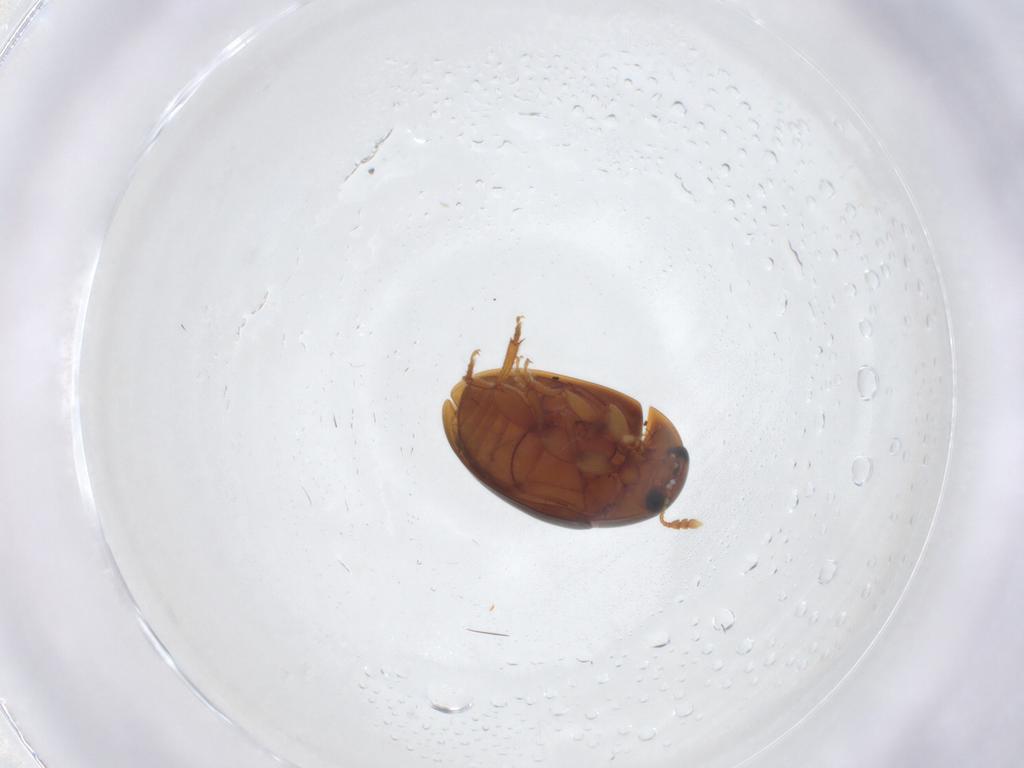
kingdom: Animalia
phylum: Arthropoda
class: Insecta
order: Coleoptera
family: Phalacridae
